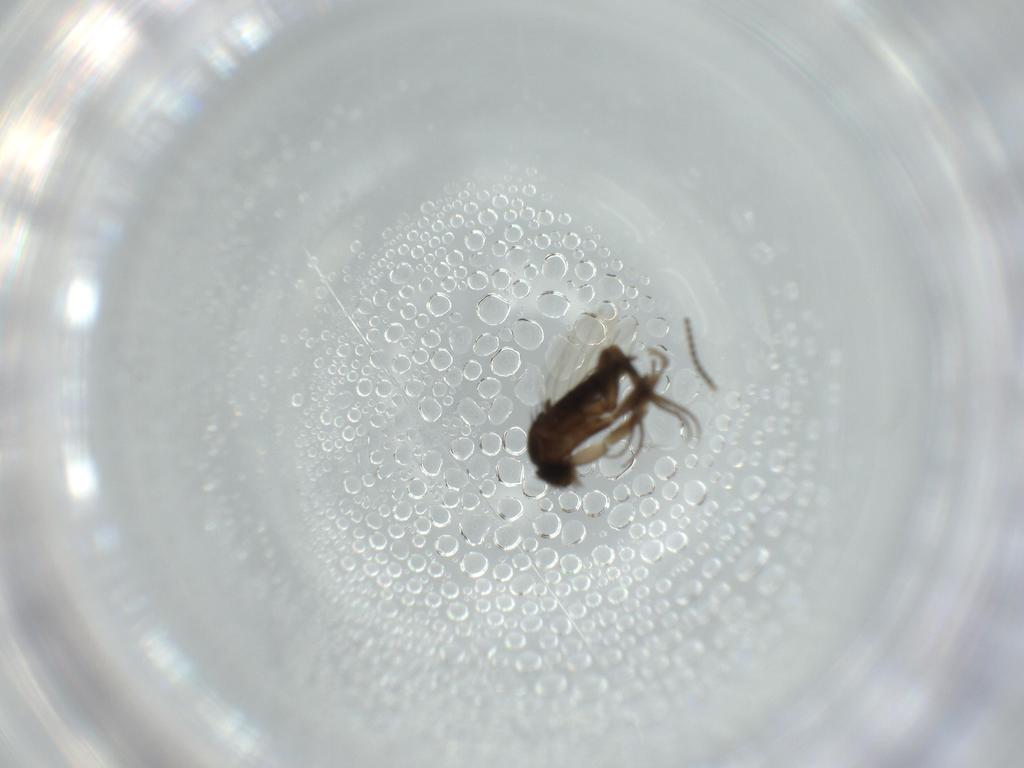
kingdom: Animalia
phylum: Arthropoda
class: Insecta
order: Diptera
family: Phoridae
